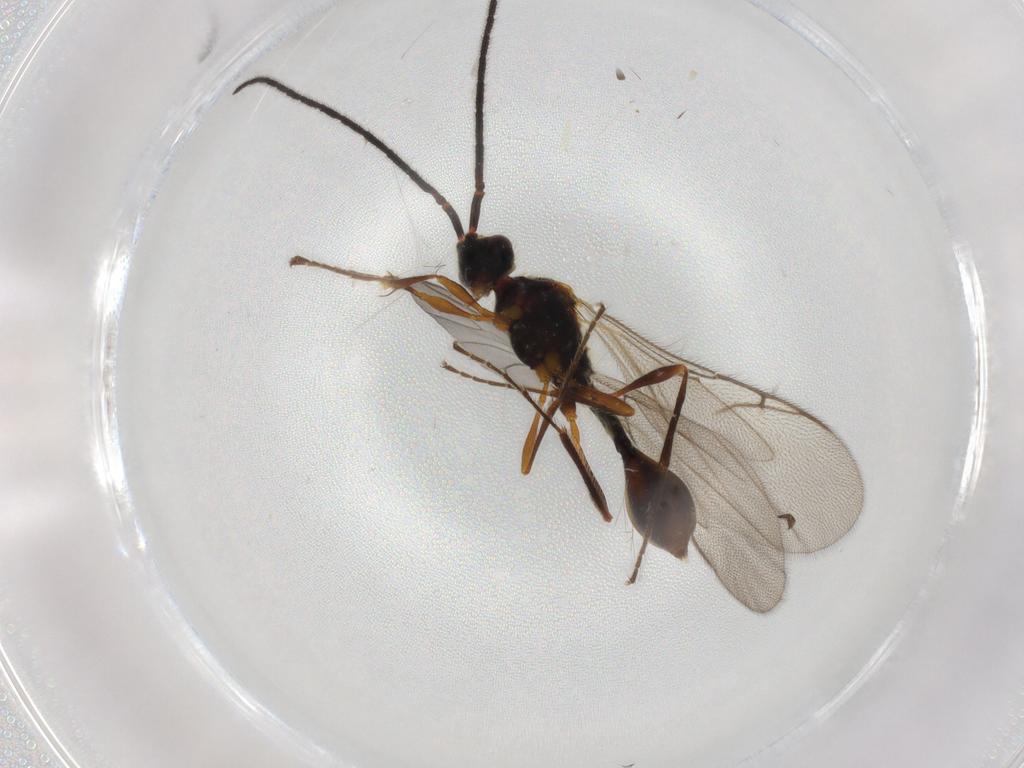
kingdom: Animalia
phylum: Arthropoda
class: Insecta
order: Hymenoptera
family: Diapriidae
